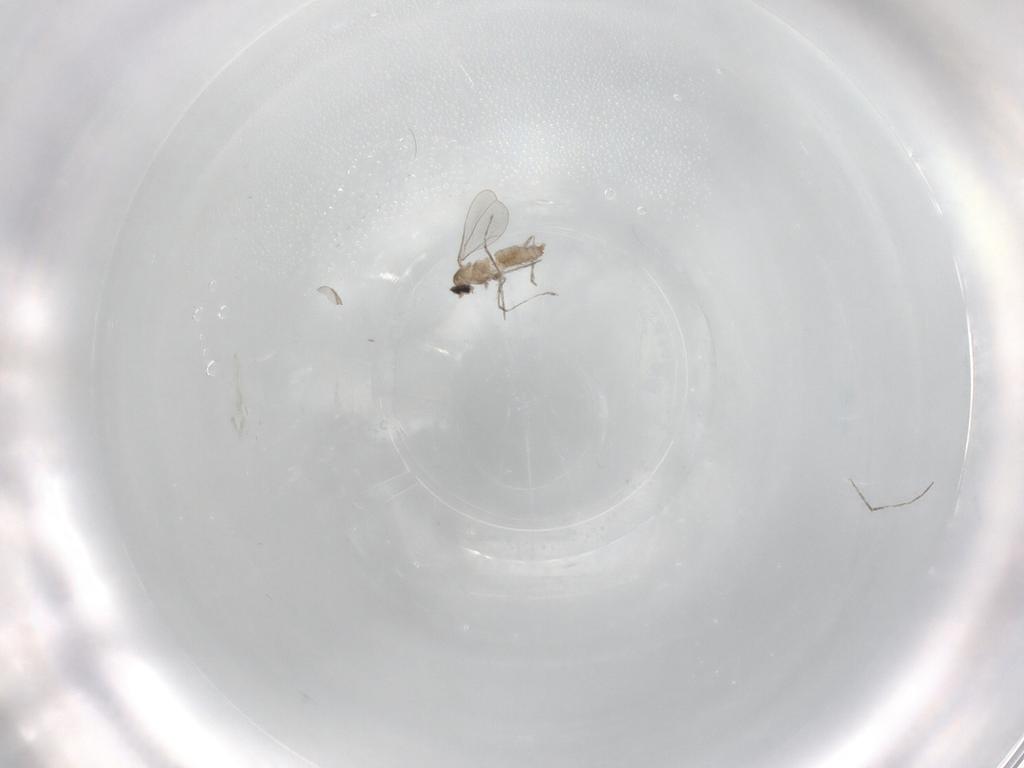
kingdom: Animalia
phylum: Arthropoda
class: Insecta
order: Diptera
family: Cecidomyiidae
